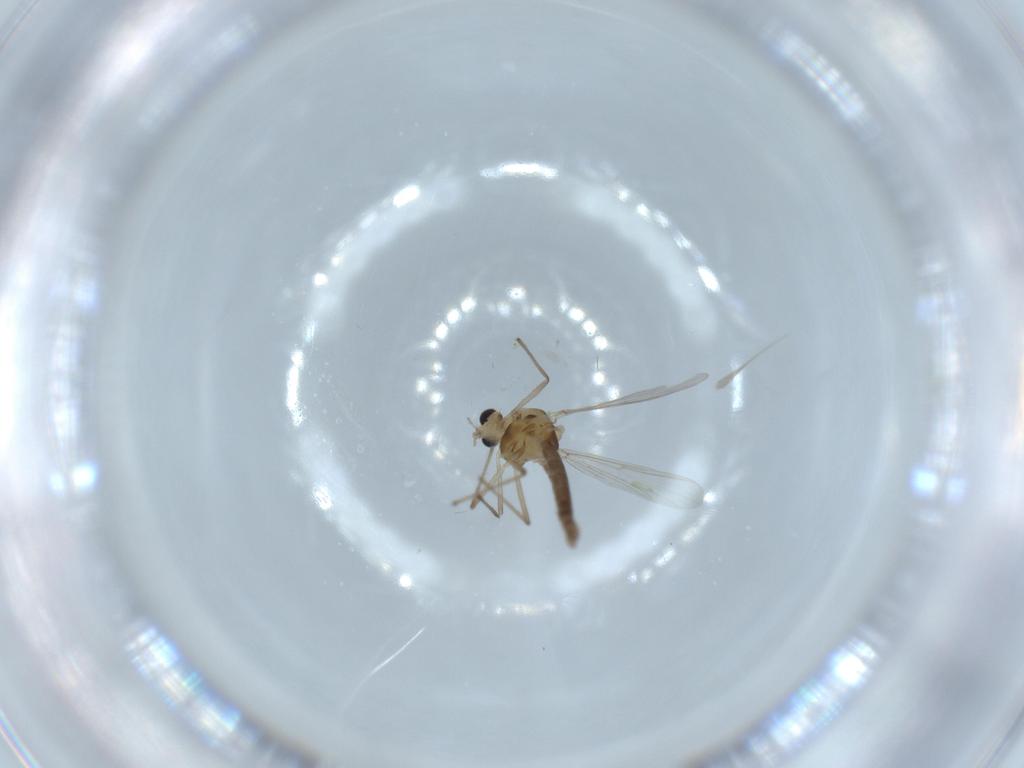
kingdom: Animalia
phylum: Arthropoda
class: Insecta
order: Diptera
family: Chironomidae
